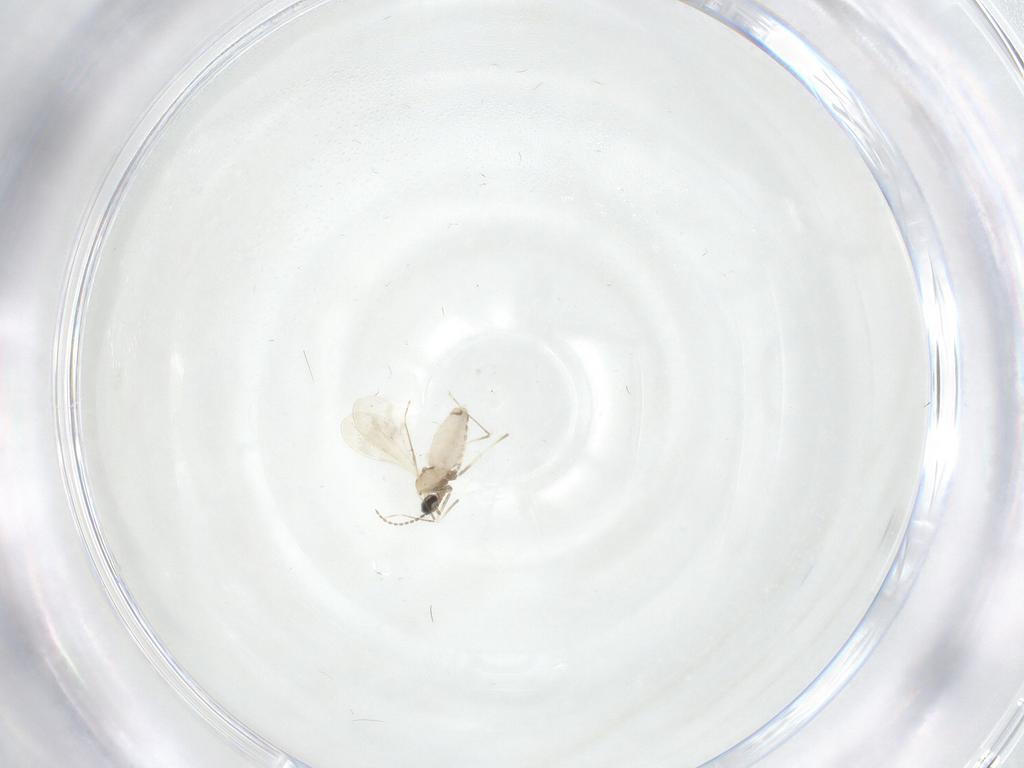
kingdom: Animalia
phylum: Arthropoda
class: Insecta
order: Diptera
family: Cecidomyiidae
